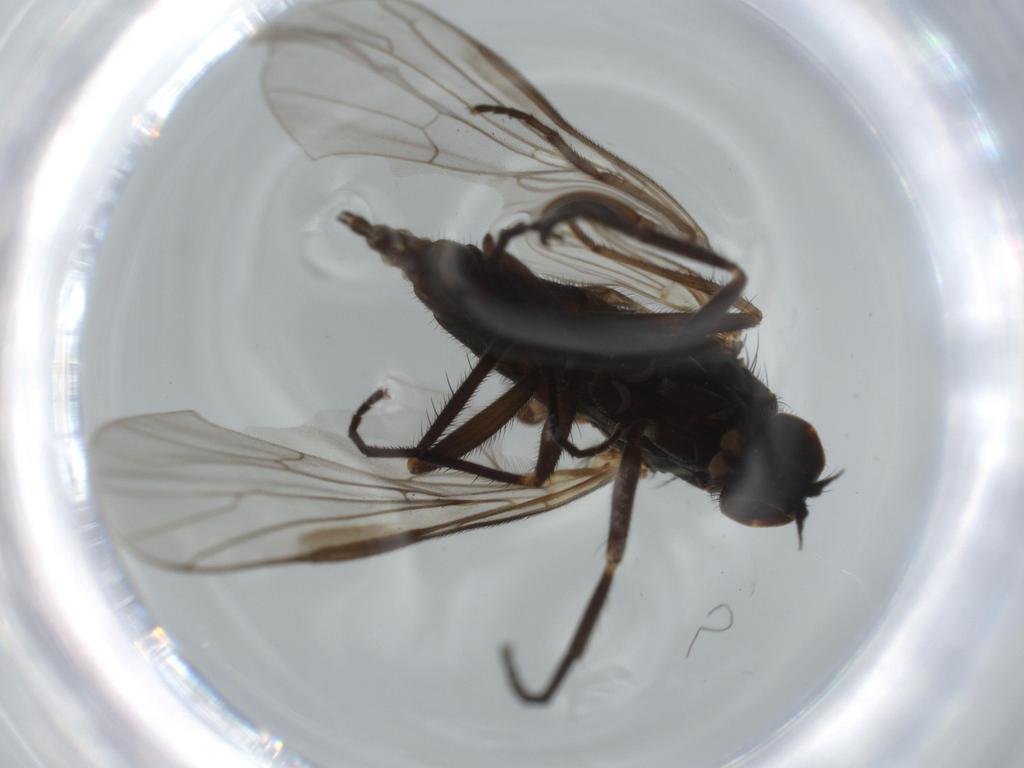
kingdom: Animalia
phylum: Arthropoda
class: Insecta
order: Diptera
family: Empididae
